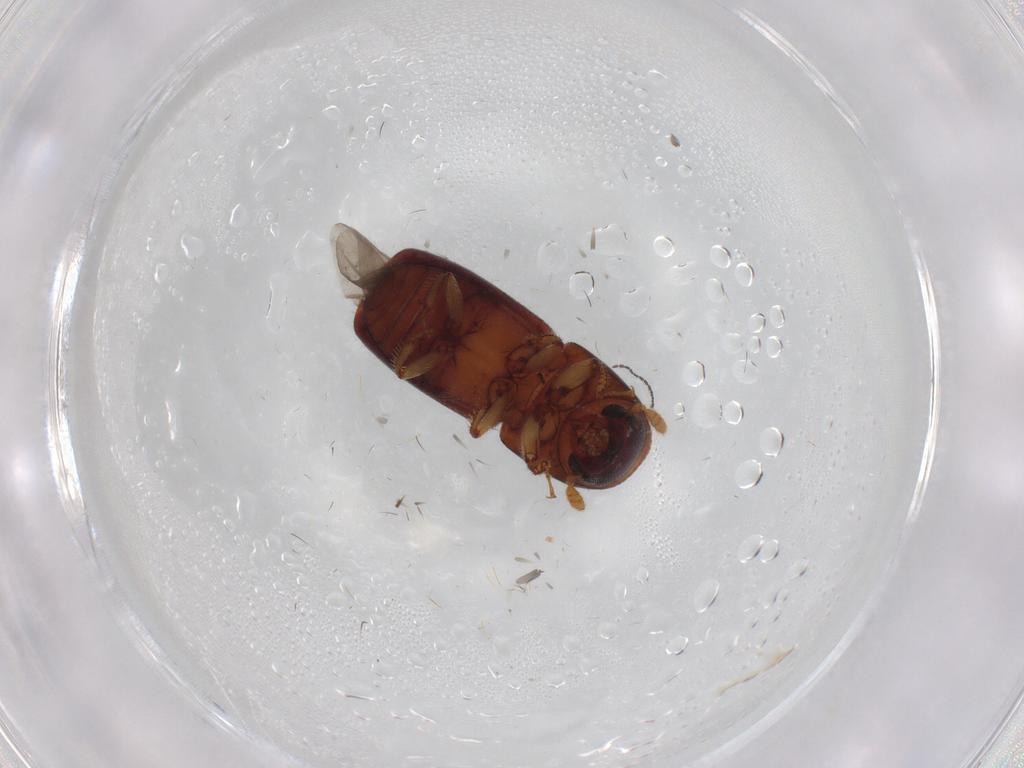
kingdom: Animalia
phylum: Arthropoda
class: Insecta
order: Coleoptera
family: Curculionidae
